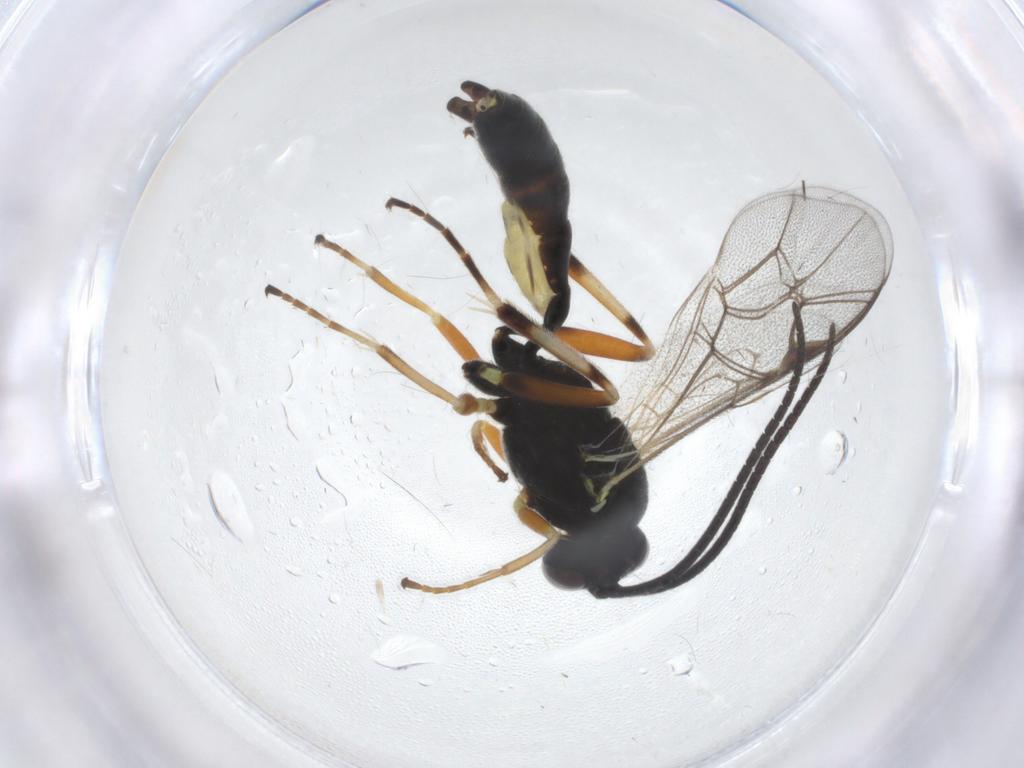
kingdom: Animalia
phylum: Arthropoda
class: Insecta
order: Hymenoptera
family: Ichneumonidae
